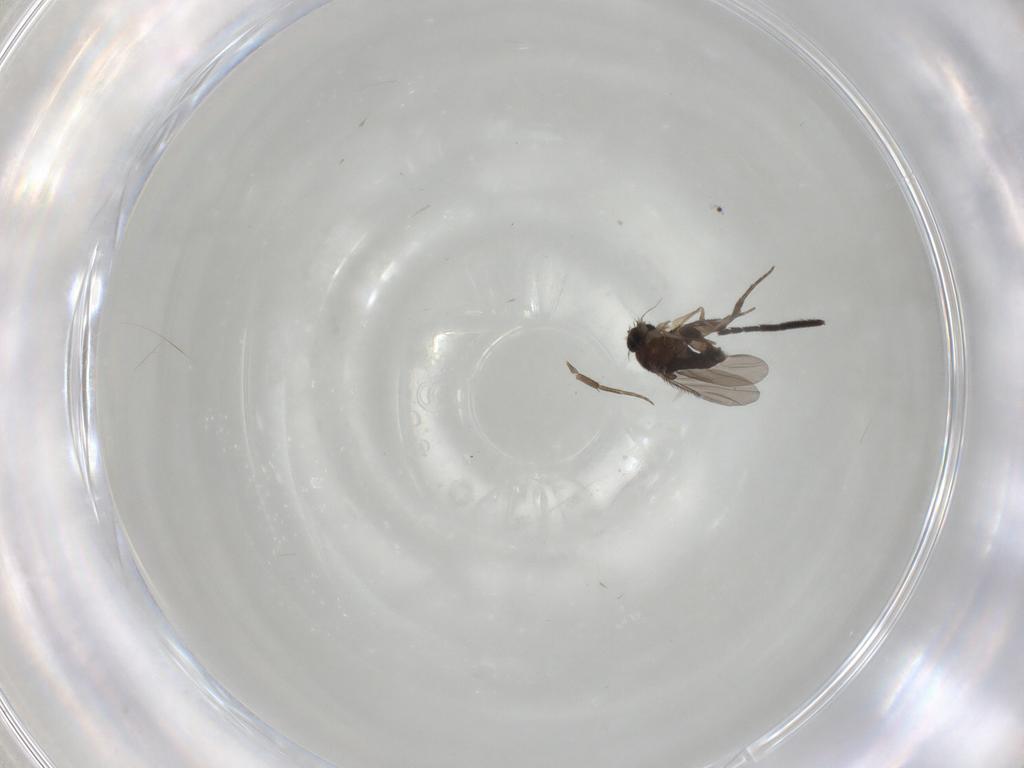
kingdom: Animalia
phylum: Arthropoda
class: Insecta
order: Diptera
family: Phoridae
